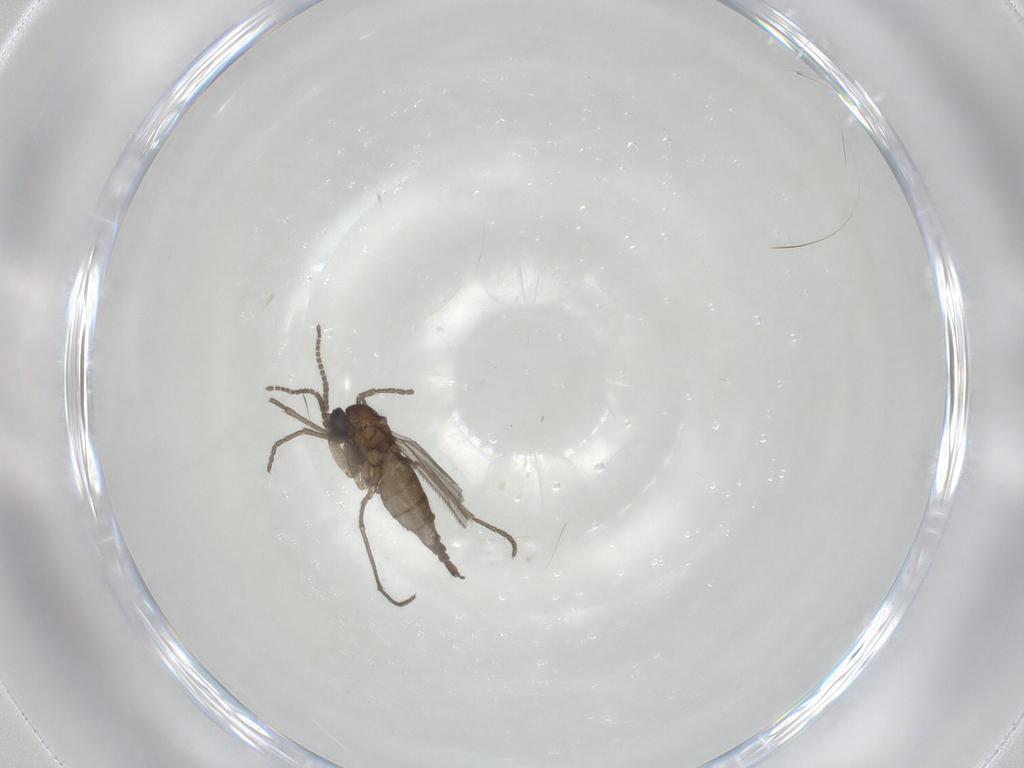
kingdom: Animalia
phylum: Arthropoda
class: Insecta
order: Diptera
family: Sciaridae
